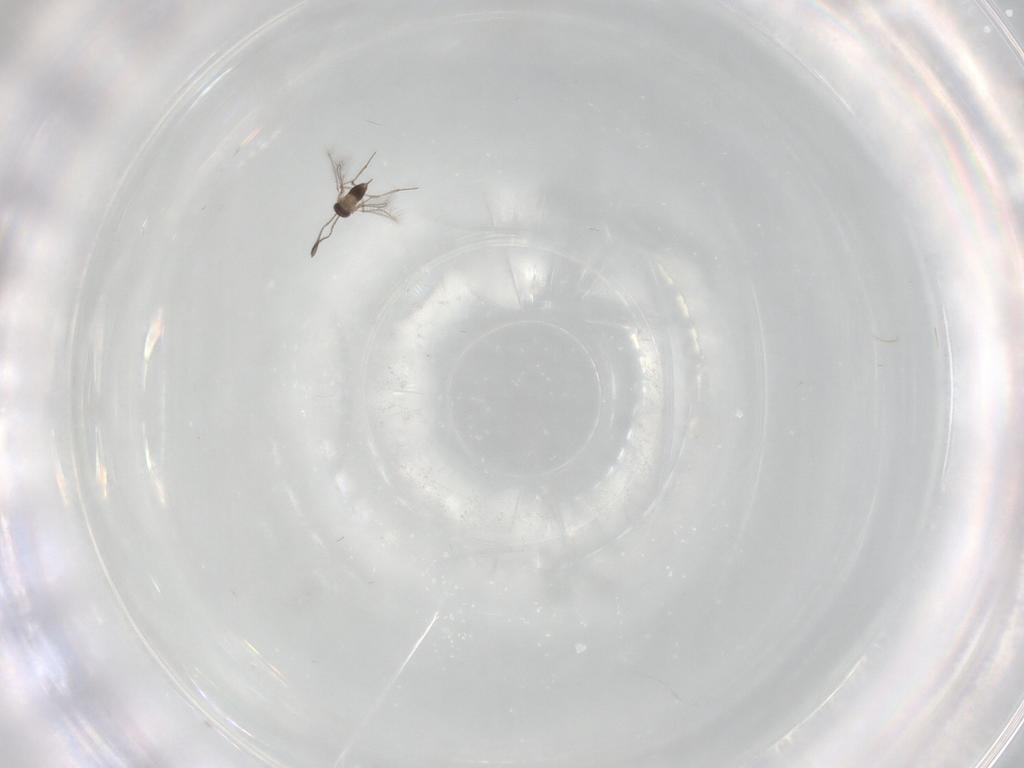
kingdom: Animalia
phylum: Arthropoda
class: Insecta
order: Hymenoptera
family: Mymaridae
